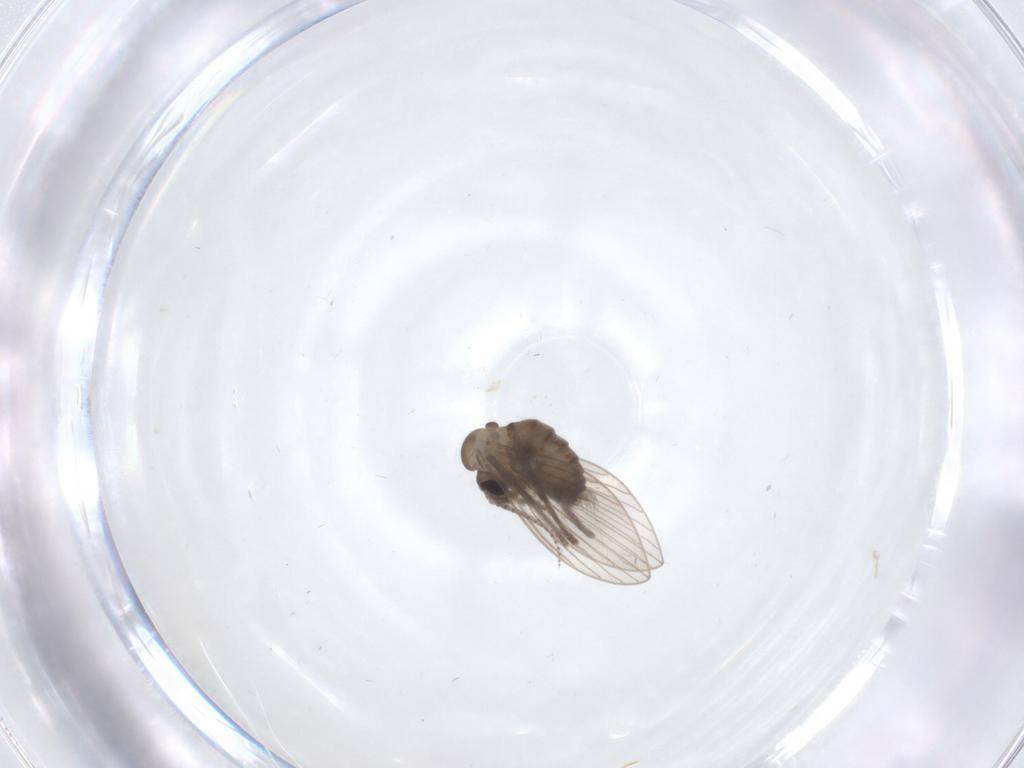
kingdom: Animalia
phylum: Arthropoda
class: Insecta
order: Diptera
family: Psychodidae
